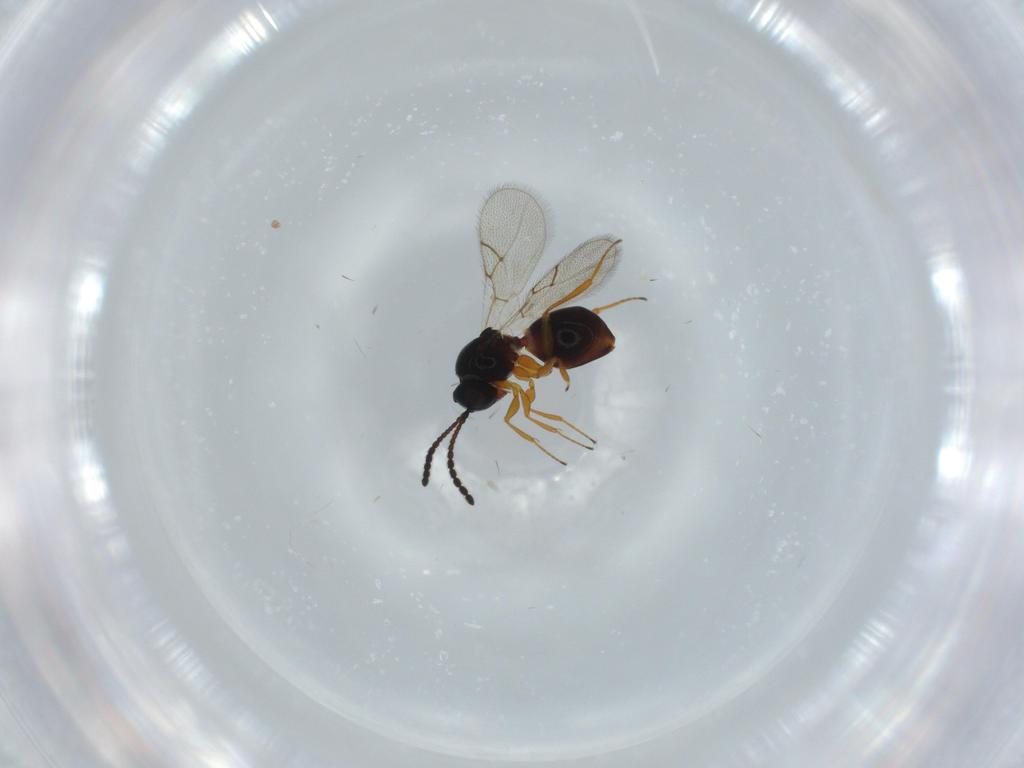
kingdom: Animalia
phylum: Arthropoda
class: Insecta
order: Hymenoptera
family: Figitidae
